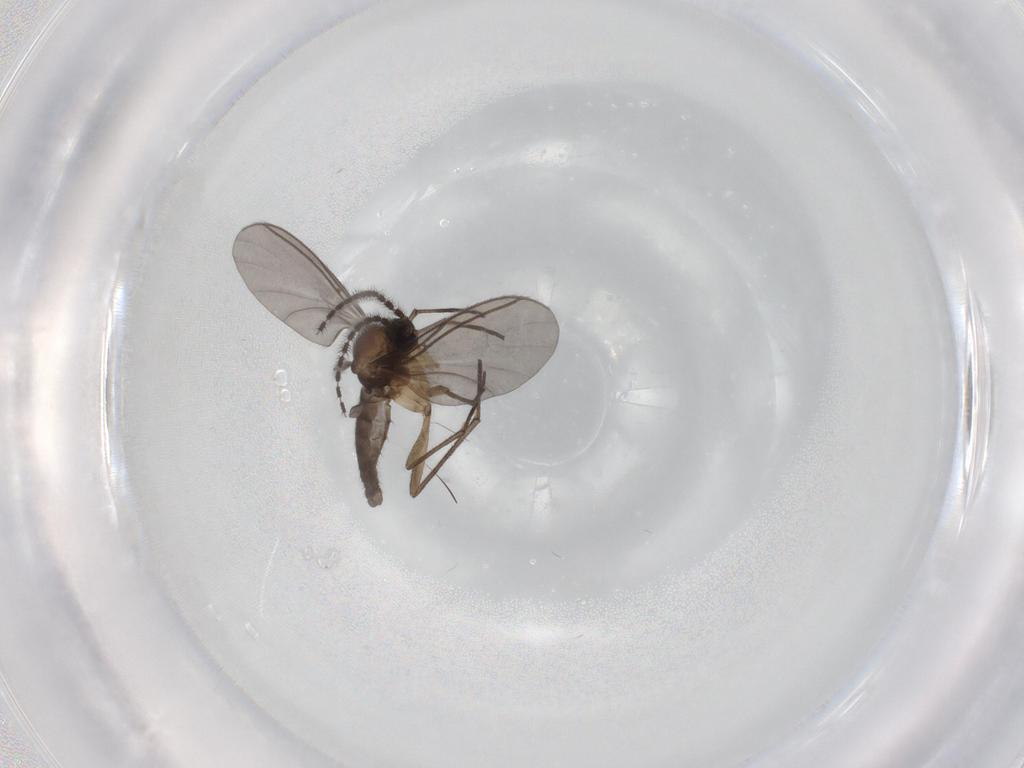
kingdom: Animalia
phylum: Arthropoda
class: Insecta
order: Diptera
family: Sciaridae
